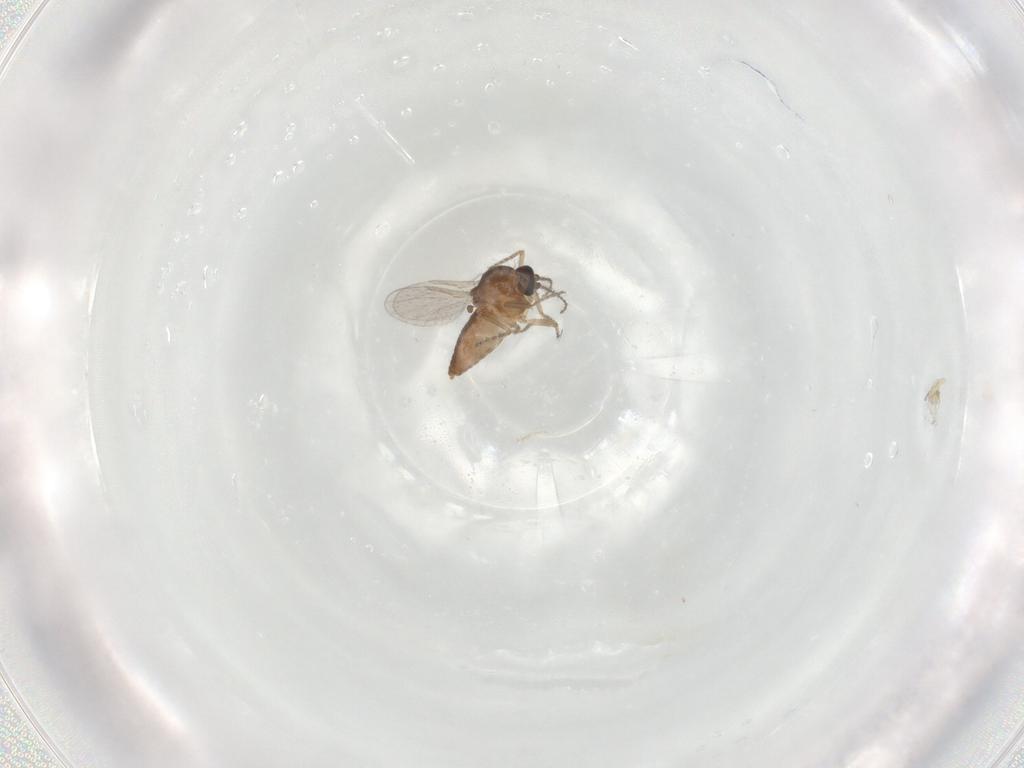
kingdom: Animalia
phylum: Arthropoda
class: Insecta
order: Diptera
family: Ceratopogonidae
